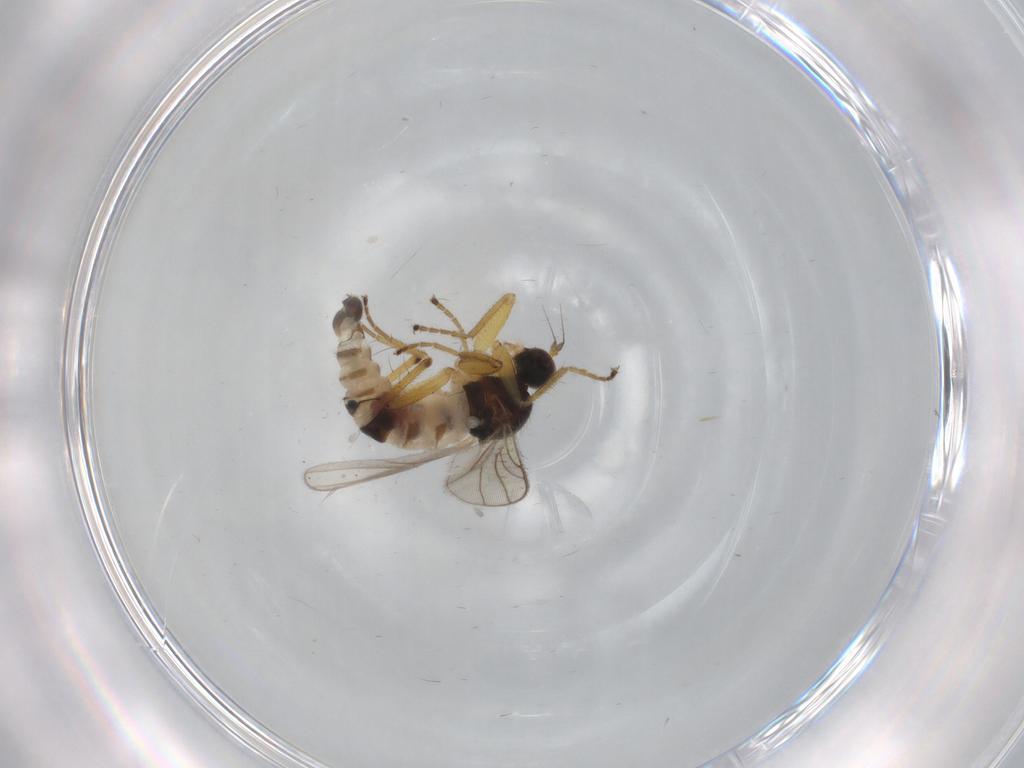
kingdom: Animalia
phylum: Arthropoda
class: Insecta
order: Diptera
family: Hybotidae
